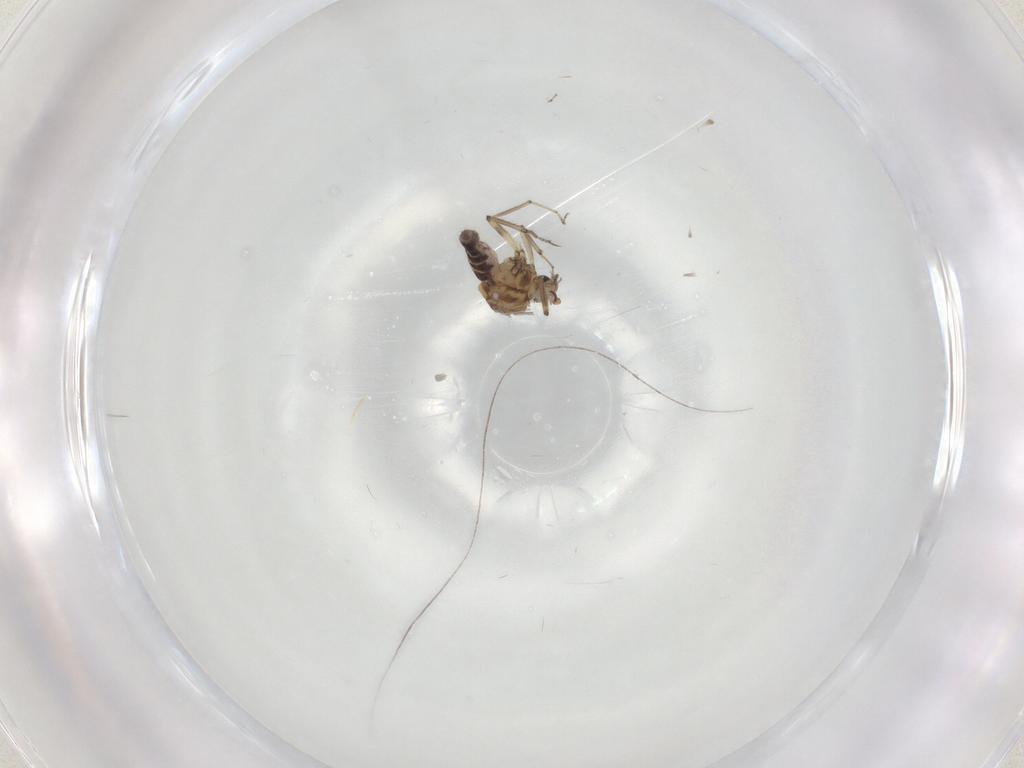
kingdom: Animalia
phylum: Arthropoda
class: Insecta
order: Diptera
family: Ceratopogonidae
